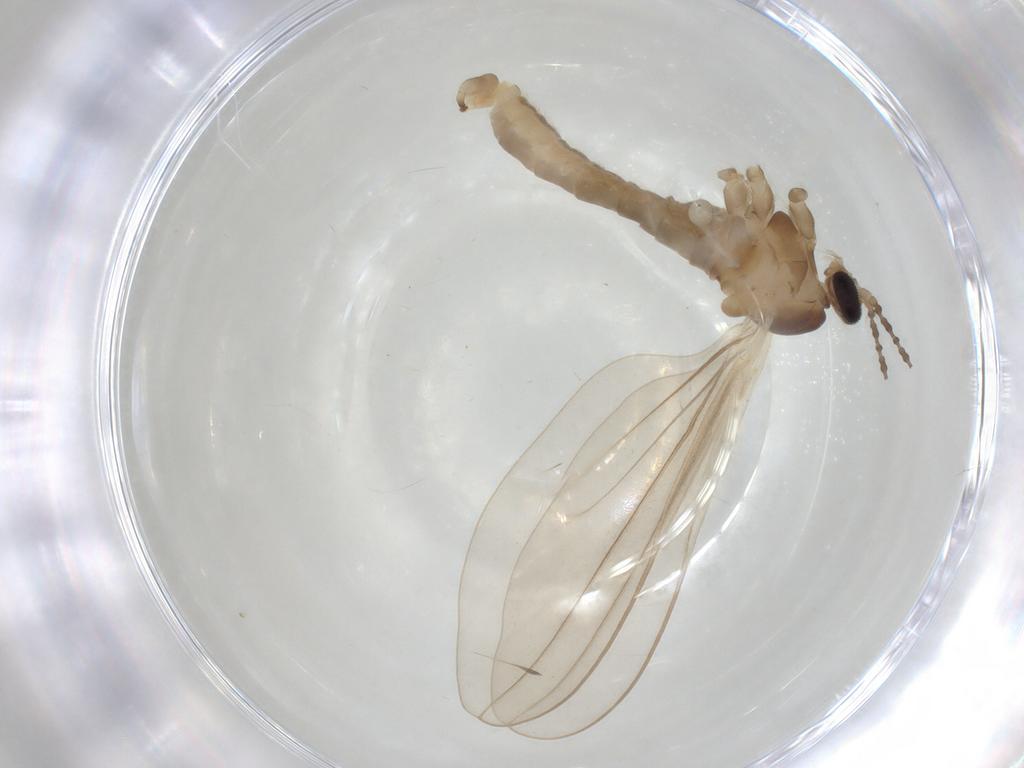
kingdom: Animalia
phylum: Arthropoda
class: Insecta
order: Diptera
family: Cecidomyiidae
